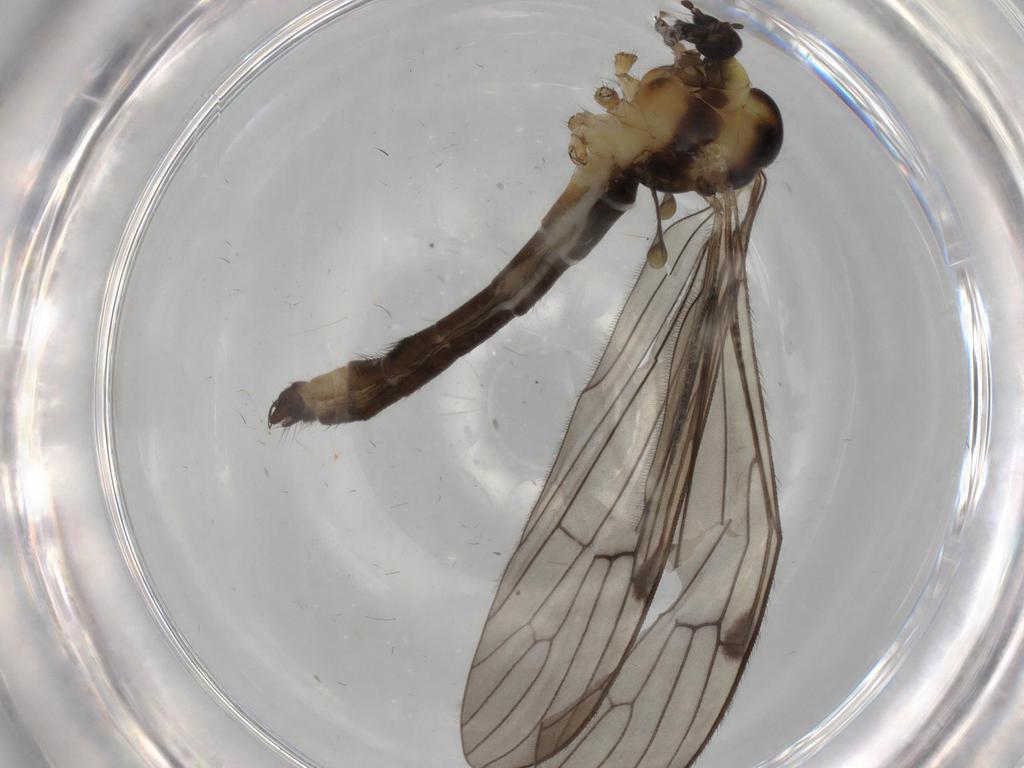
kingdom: Animalia
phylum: Arthropoda
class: Insecta
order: Diptera
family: Limoniidae
